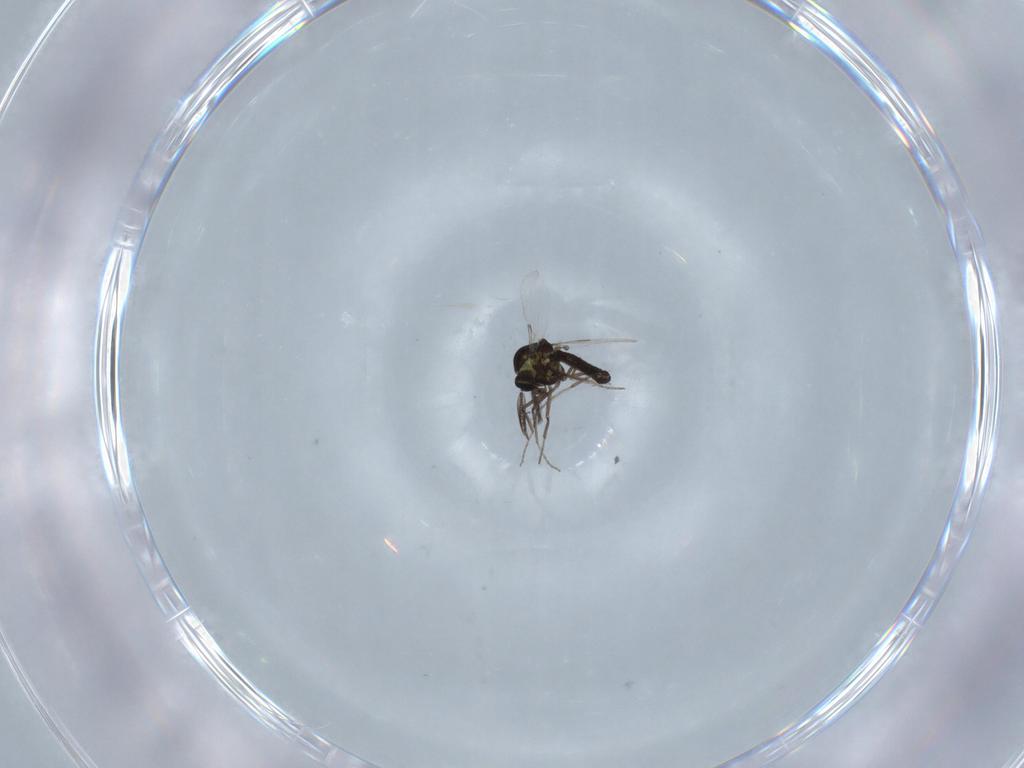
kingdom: Animalia
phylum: Arthropoda
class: Insecta
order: Diptera
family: Ceratopogonidae
